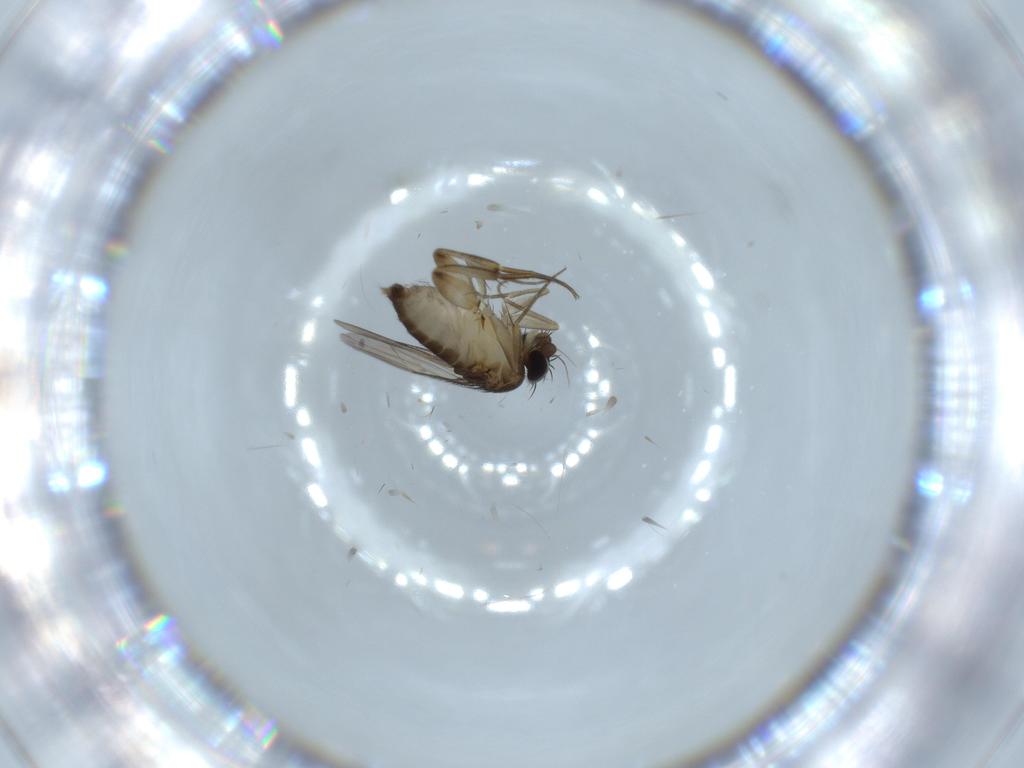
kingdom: Animalia
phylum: Arthropoda
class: Insecta
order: Diptera
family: Phoridae
